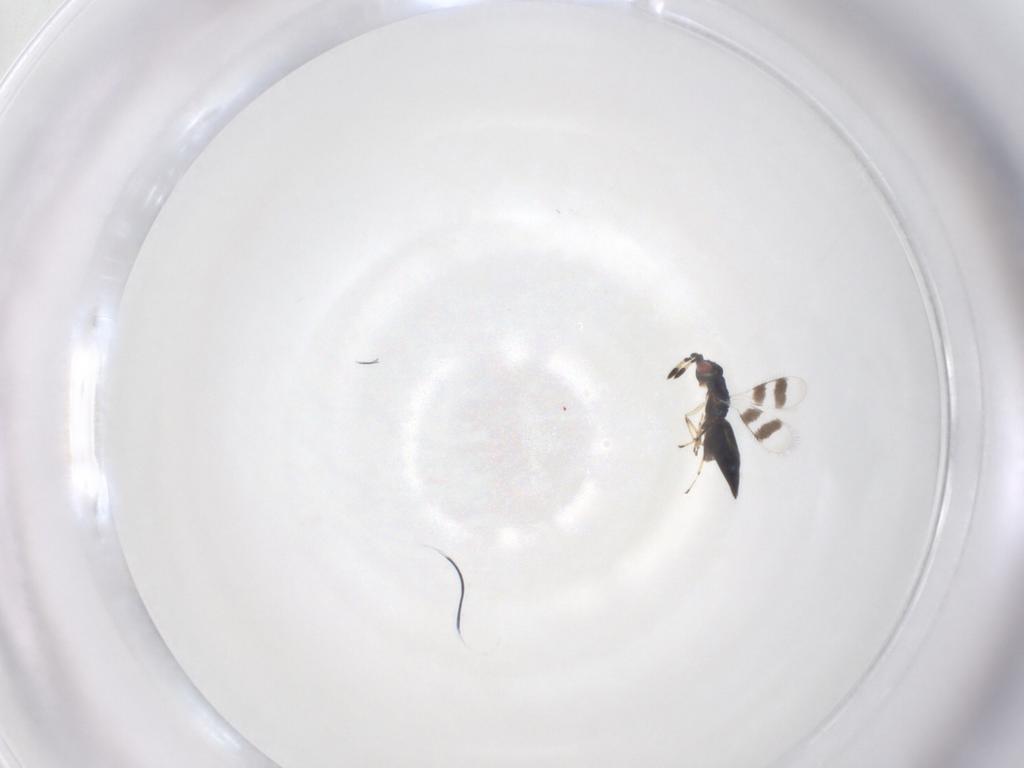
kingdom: Animalia
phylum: Arthropoda
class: Insecta
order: Hymenoptera
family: Eulophidae
